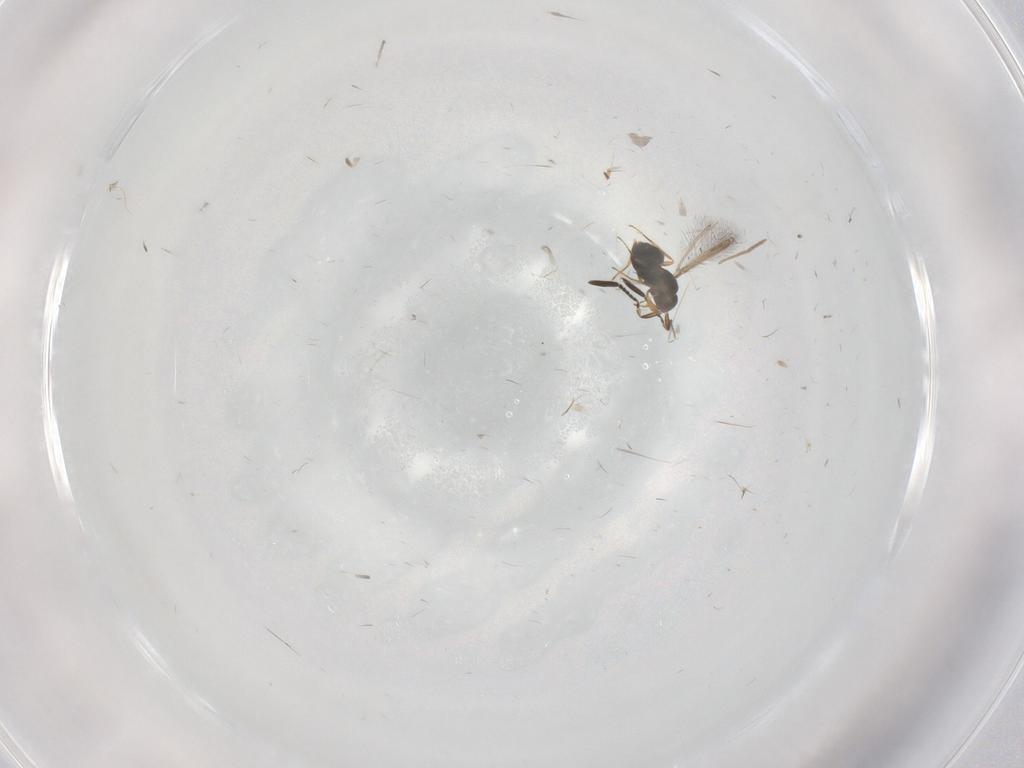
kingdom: Animalia
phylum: Arthropoda
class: Insecta
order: Hymenoptera
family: Mymaridae
